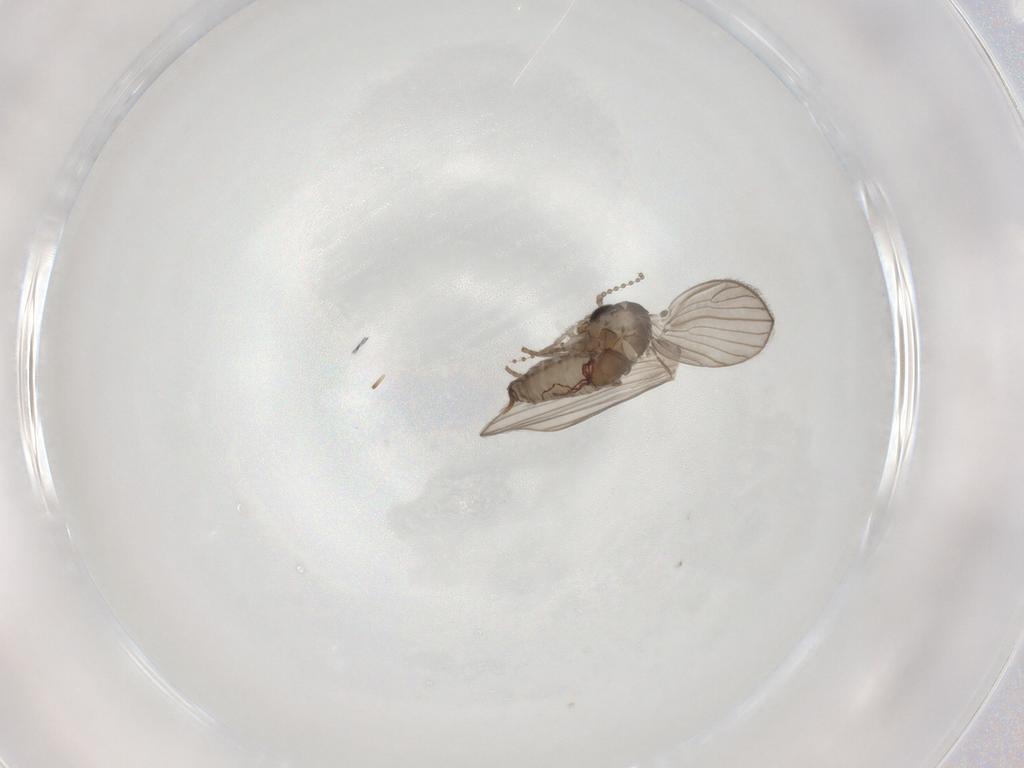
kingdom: Animalia
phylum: Arthropoda
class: Insecta
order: Diptera
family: Psychodidae
